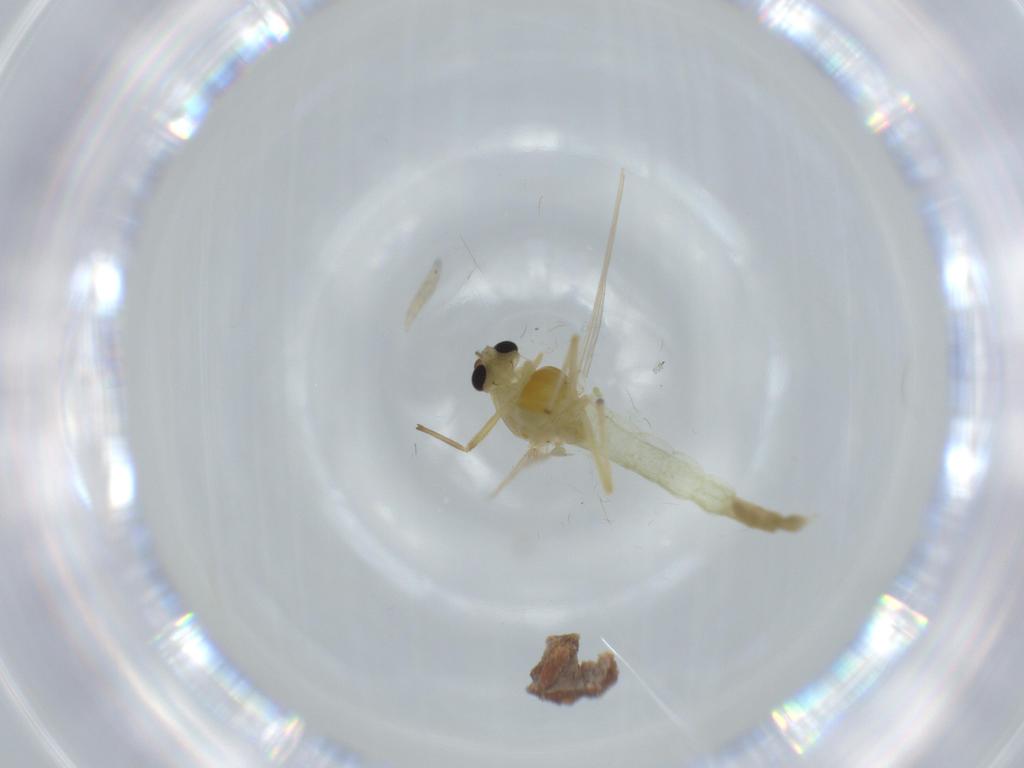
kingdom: Animalia
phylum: Arthropoda
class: Insecta
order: Diptera
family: Chironomidae
